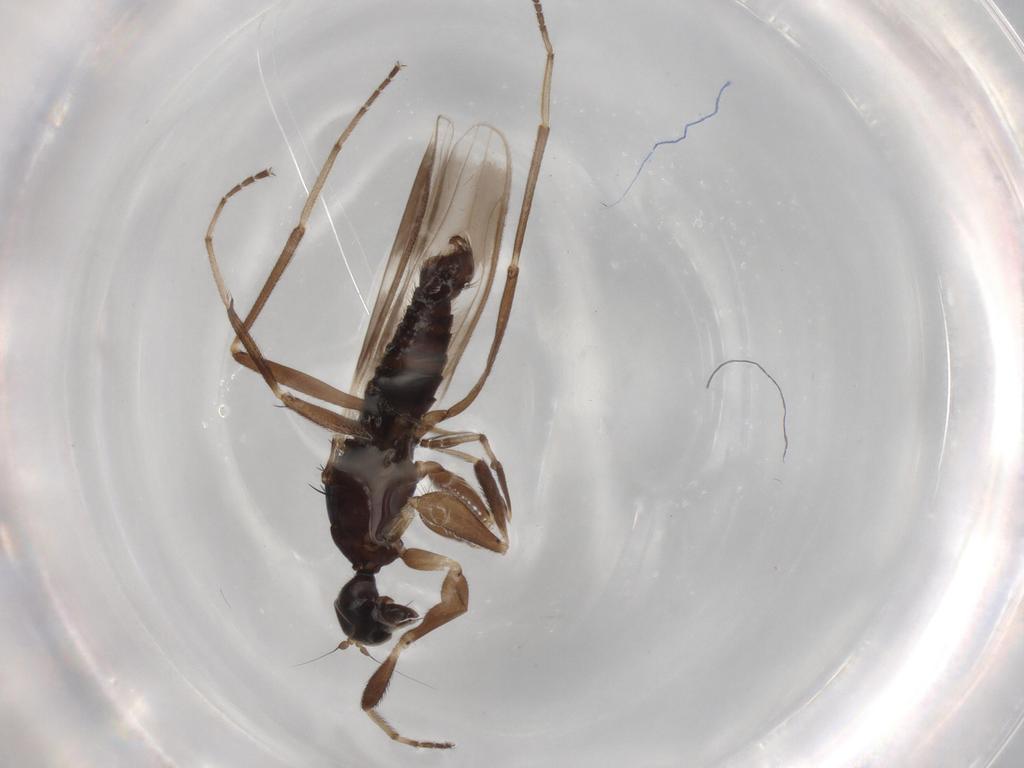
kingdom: Animalia
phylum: Arthropoda
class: Insecta
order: Diptera
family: Hybotidae
